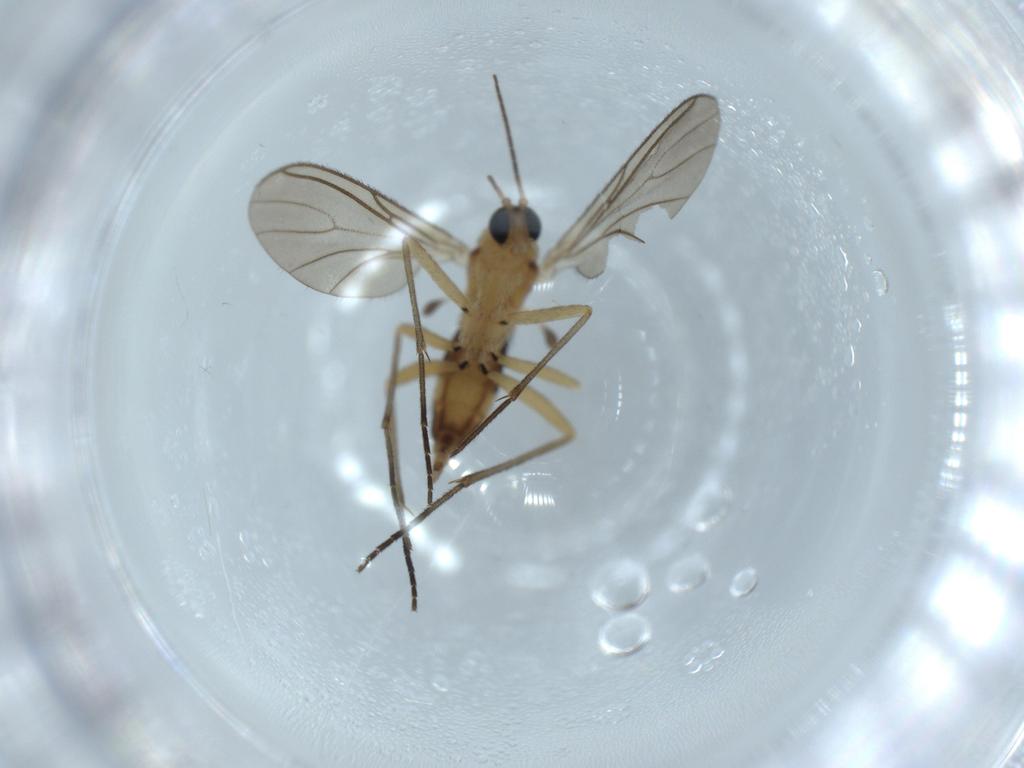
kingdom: Animalia
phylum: Arthropoda
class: Insecta
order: Diptera
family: Sciaridae
